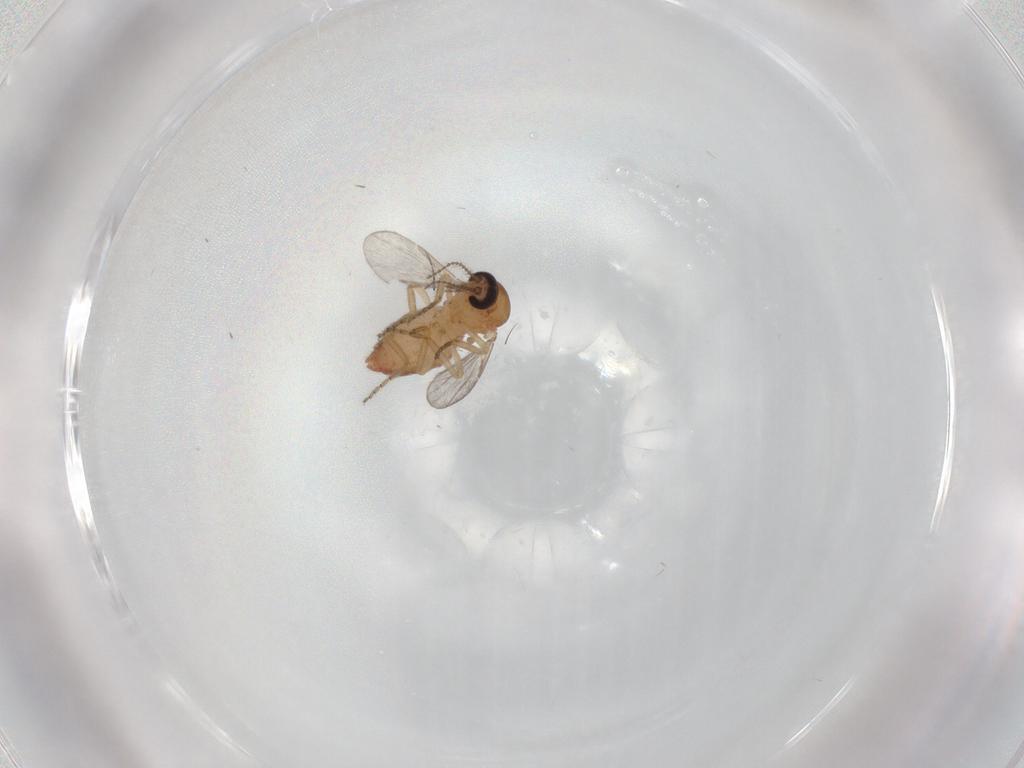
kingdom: Animalia
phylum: Arthropoda
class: Insecta
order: Diptera
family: Ceratopogonidae
